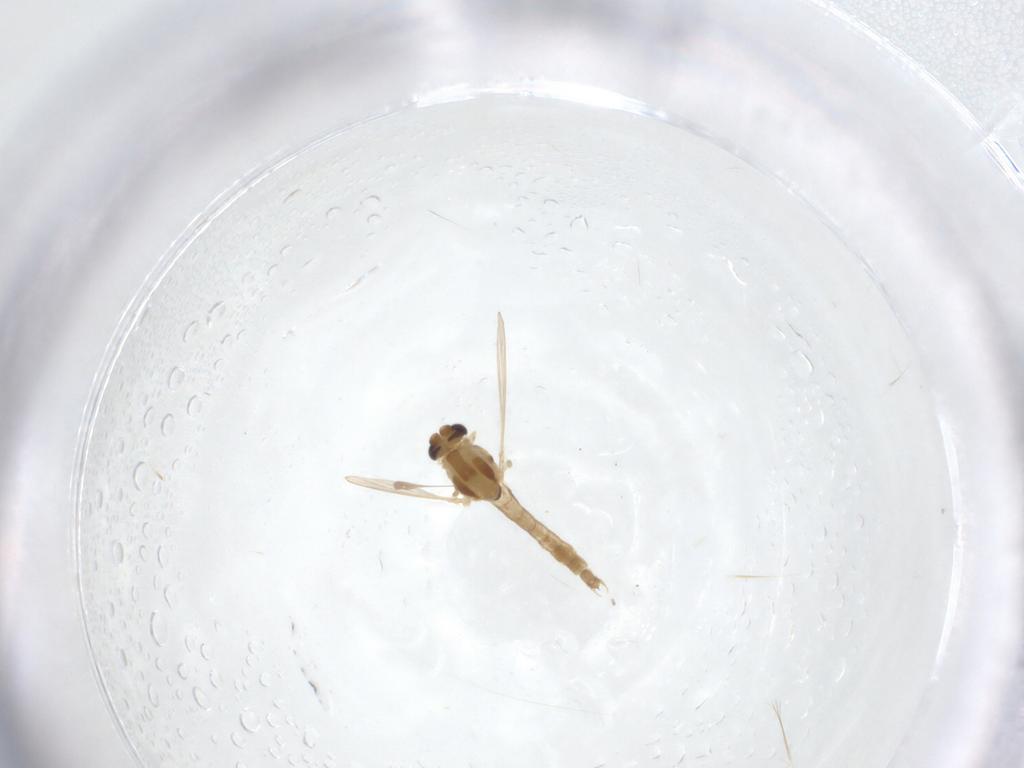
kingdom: Animalia
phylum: Arthropoda
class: Insecta
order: Diptera
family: Chironomidae
